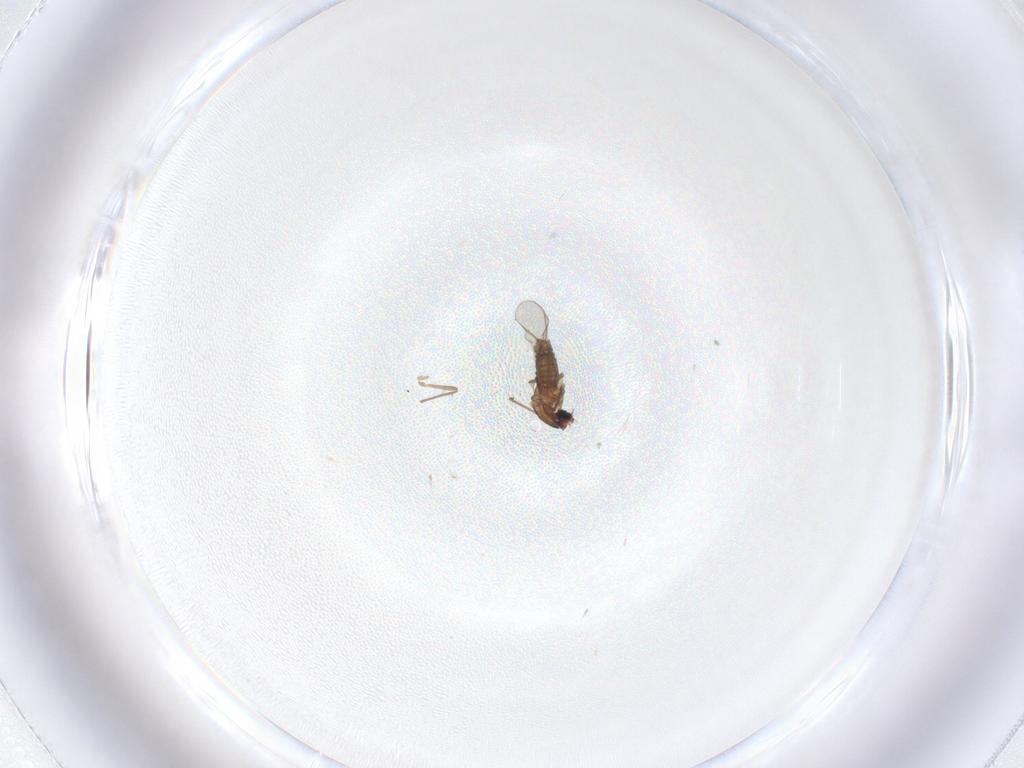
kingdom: Animalia
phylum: Arthropoda
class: Insecta
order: Diptera
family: Chironomidae
